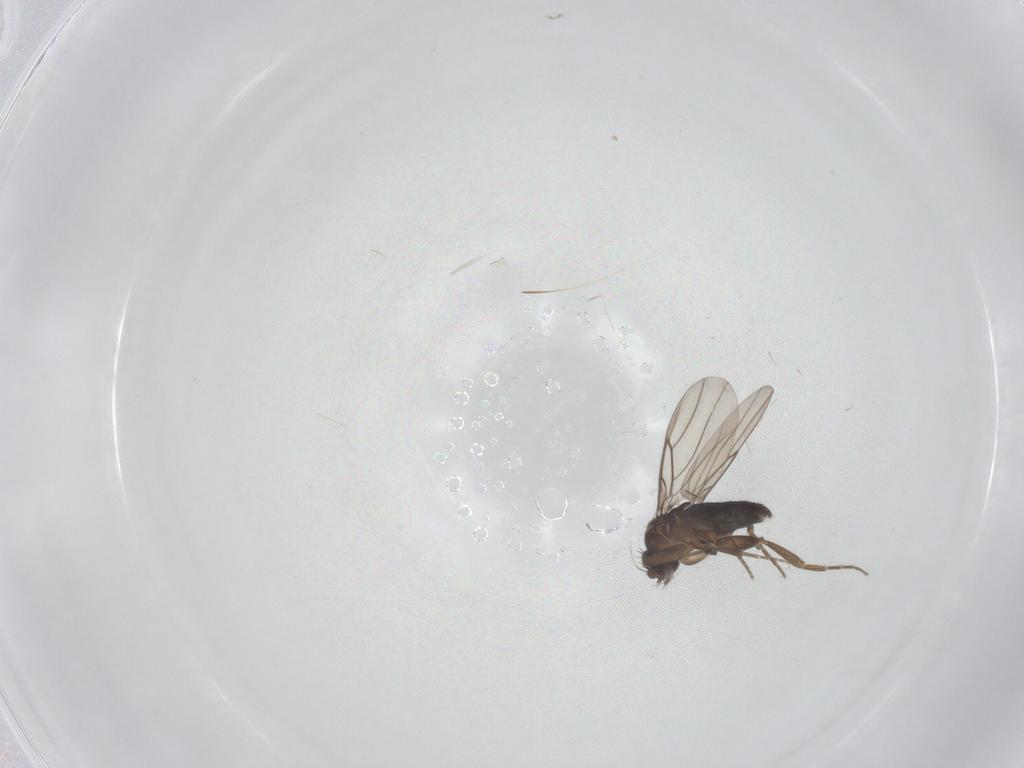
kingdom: Animalia
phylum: Arthropoda
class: Insecta
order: Diptera
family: Phoridae
